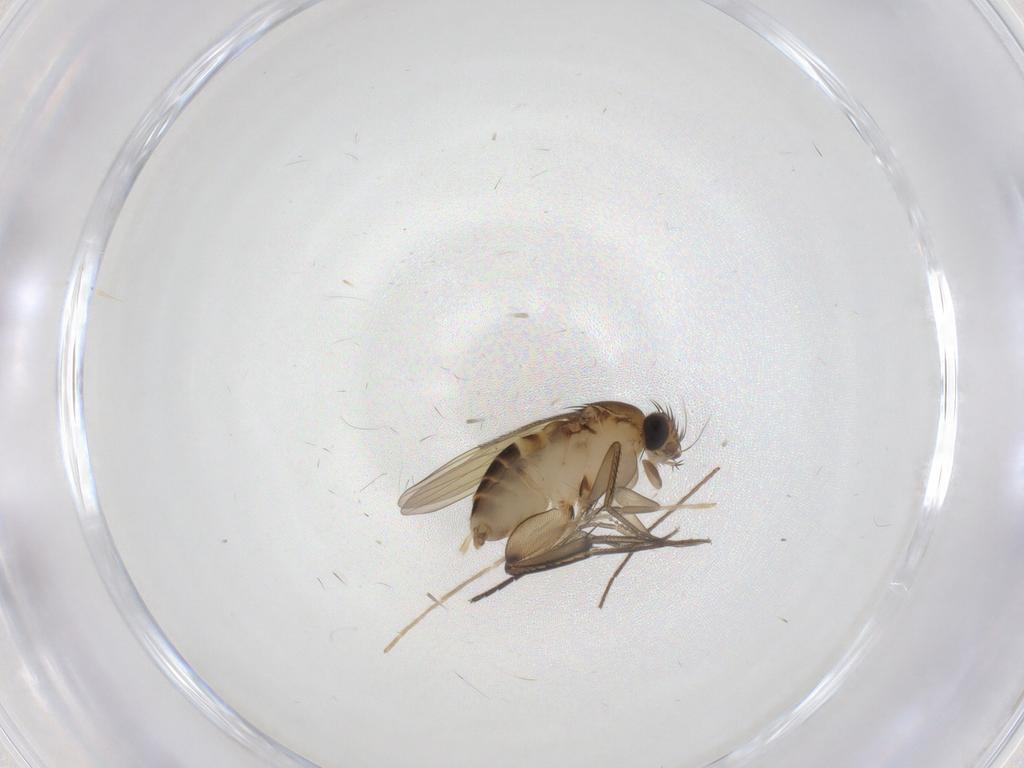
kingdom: Animalia
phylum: Arthropoda
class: Insecta
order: Diptera
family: Phoridae
